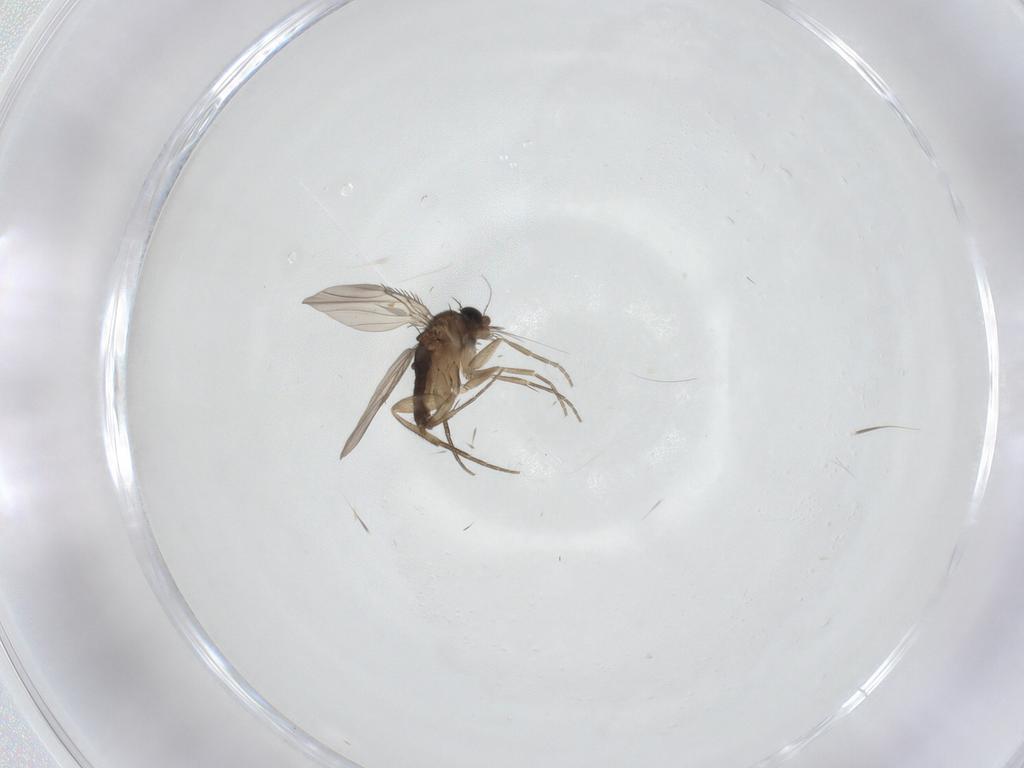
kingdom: Animalia
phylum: Arthropoda
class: Insecta
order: Diptera
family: Phoridae
